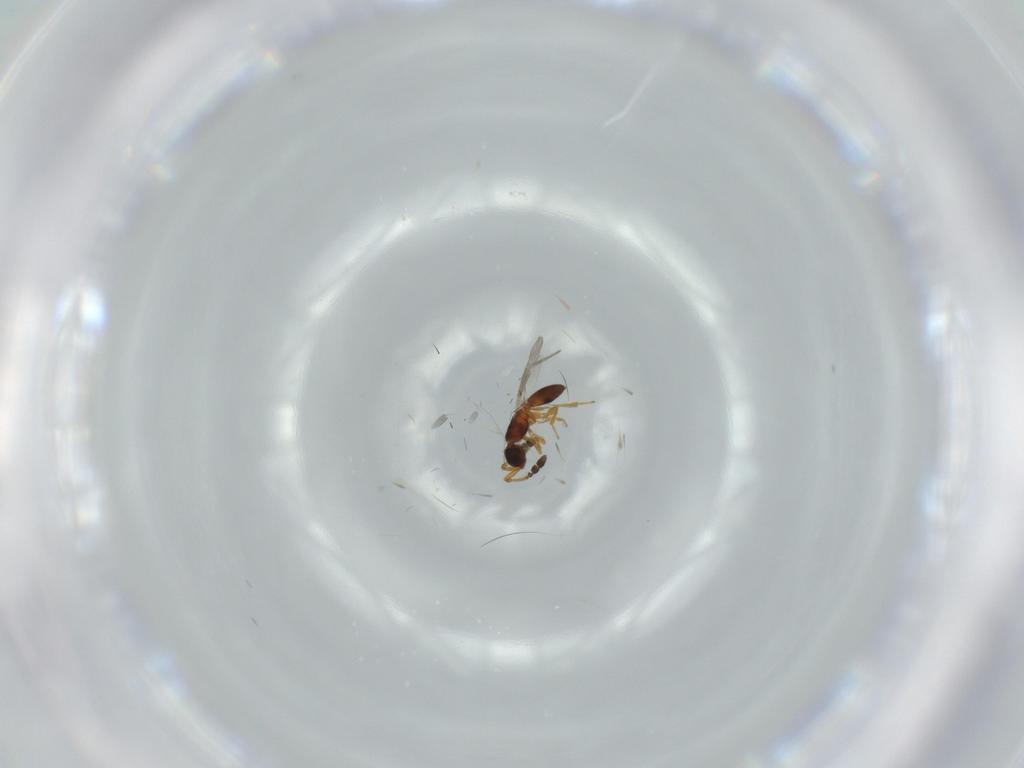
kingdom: Animalia
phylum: Arthropoda
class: Insecta
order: Hymenoptera
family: Diapriidae
